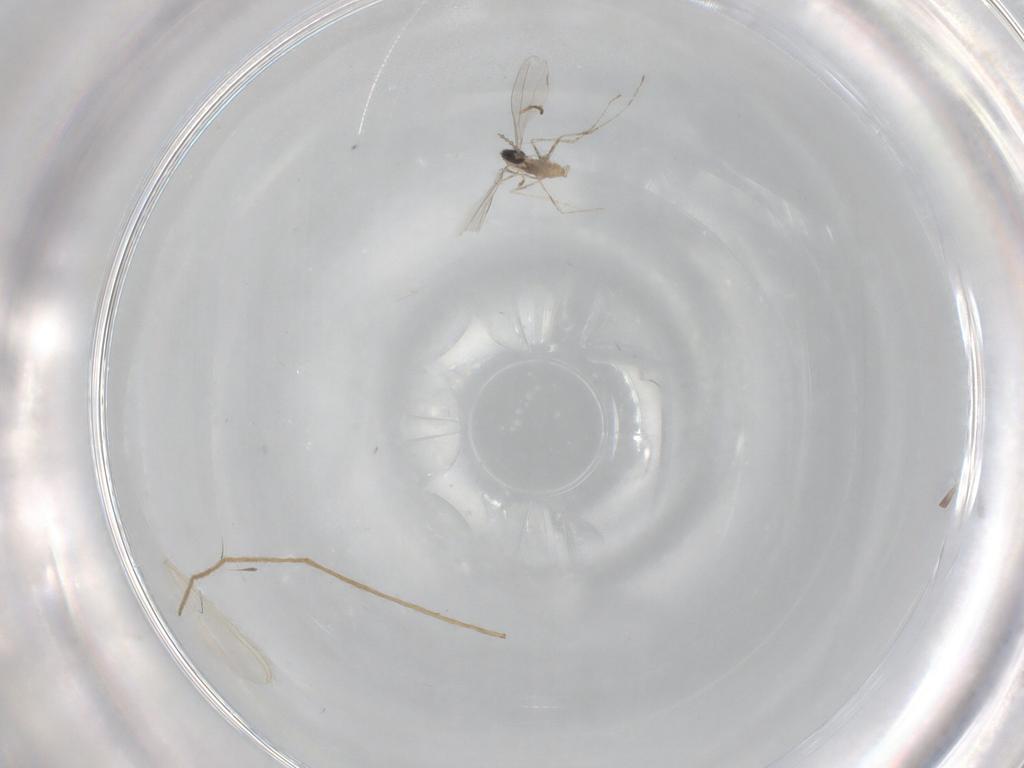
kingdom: Animalia
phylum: Arthropoda
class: Insecta
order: Diptera
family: Cecidomyiidae
